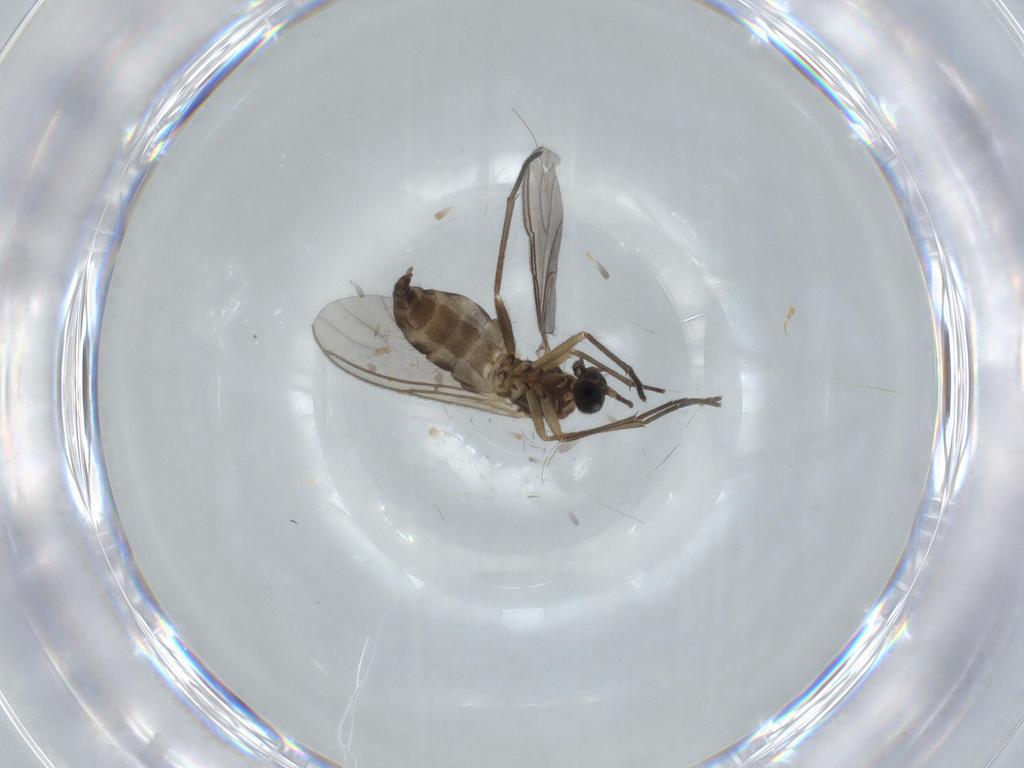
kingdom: Animalia
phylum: Arthropoda
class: Insecta
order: Diptera
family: Sciaridae
